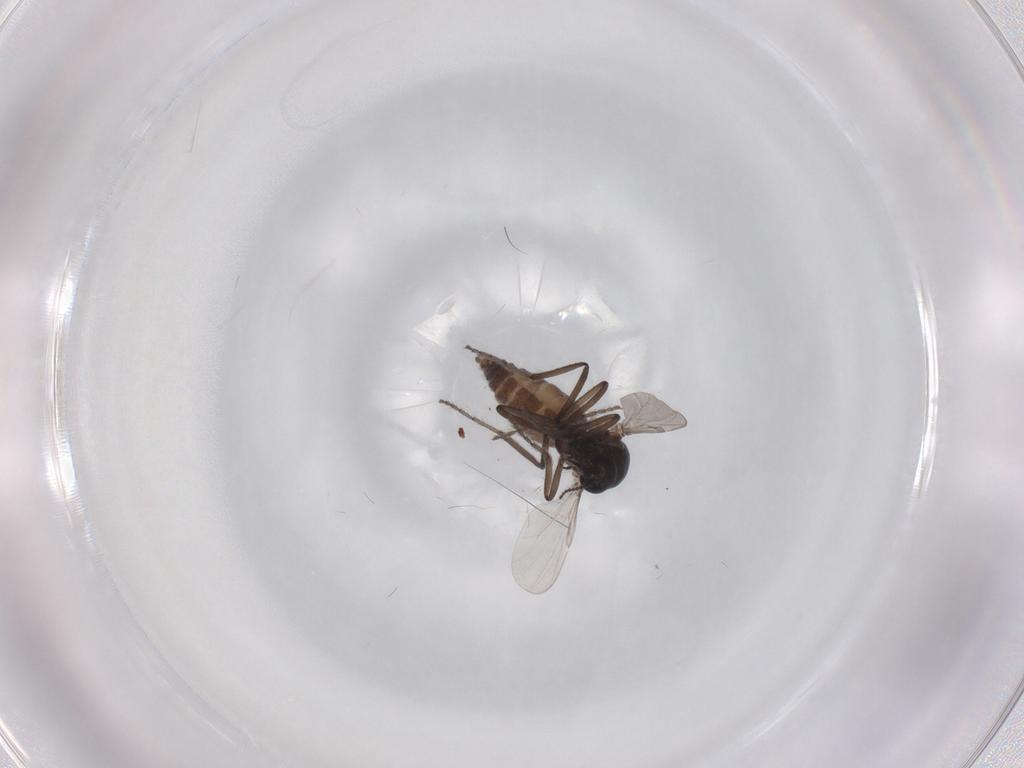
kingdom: Animalia
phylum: Arthropoda
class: Insecta
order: Diptera
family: Ceratopogonidae
